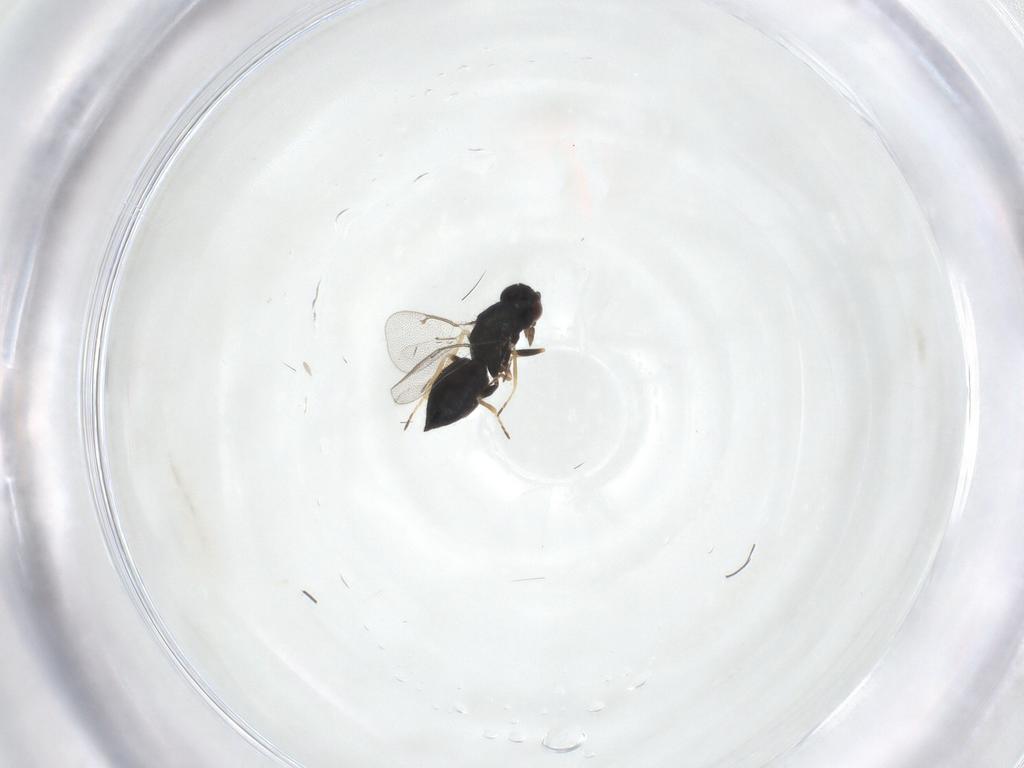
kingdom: Animalia
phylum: Arthropoda
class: Insecta
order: Hymenoptera
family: Eulophidae
